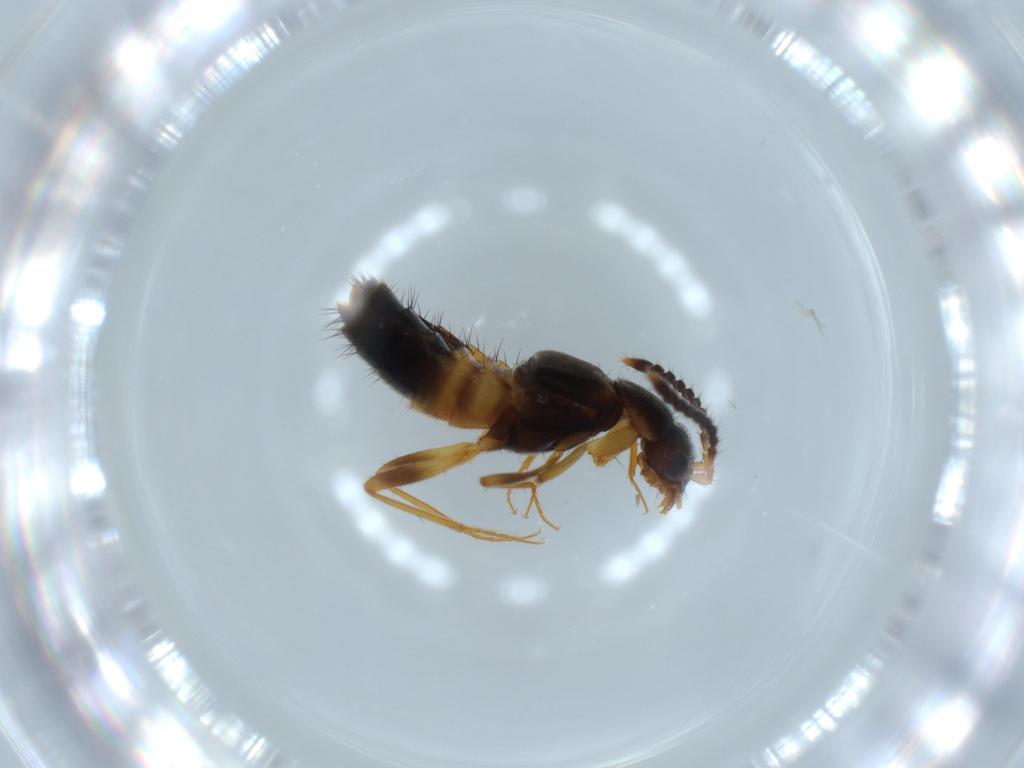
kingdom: Animalia
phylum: Arthropoda
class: Insecta
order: Coleoptera
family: Staphylinidae
